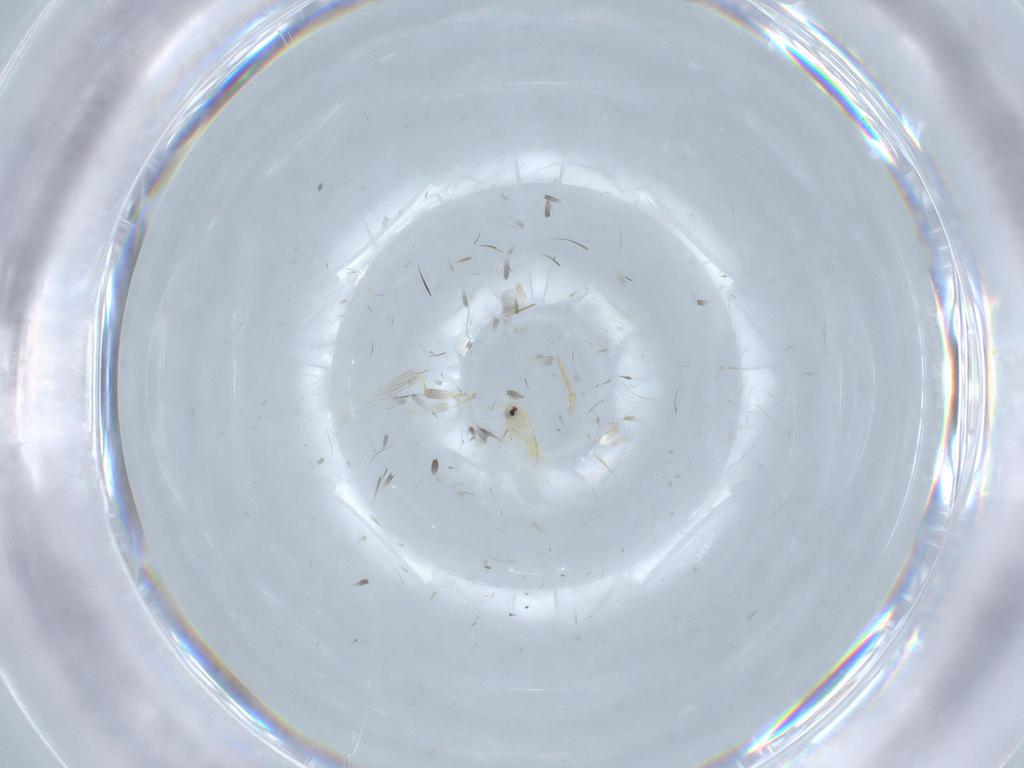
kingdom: Animalia
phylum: Arthropoda
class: Insecta
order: Hemiptera
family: Aleyrodidae
